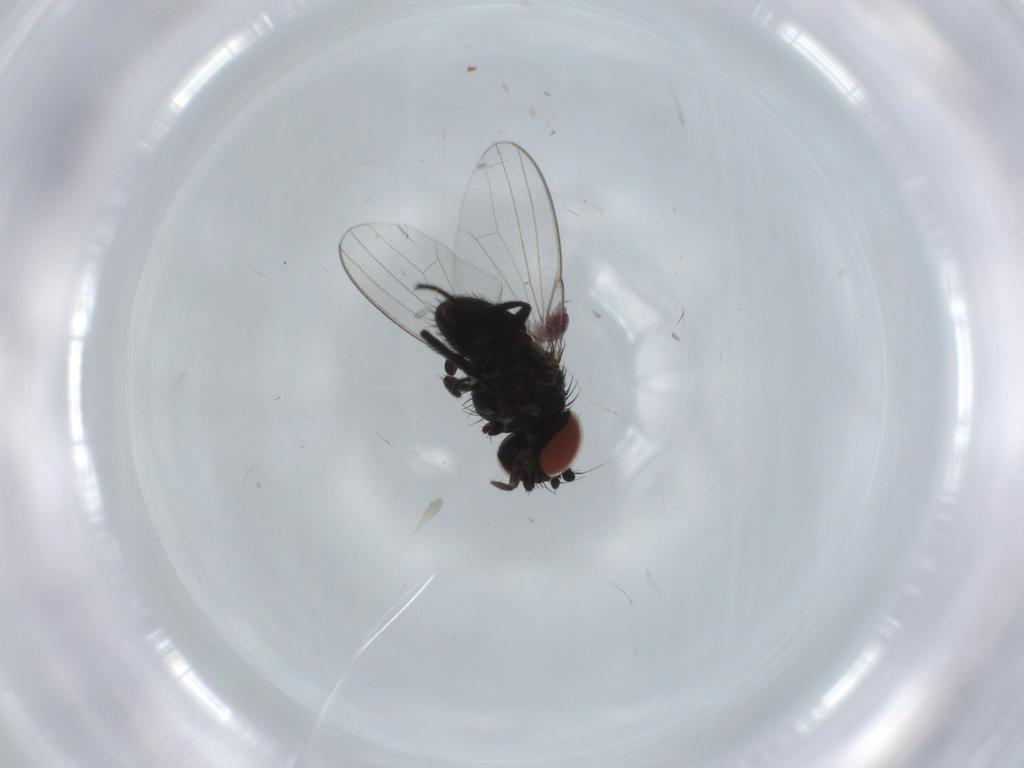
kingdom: Animalia
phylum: Arthropoda
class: Insecta
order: Diptera
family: Milichiidae
